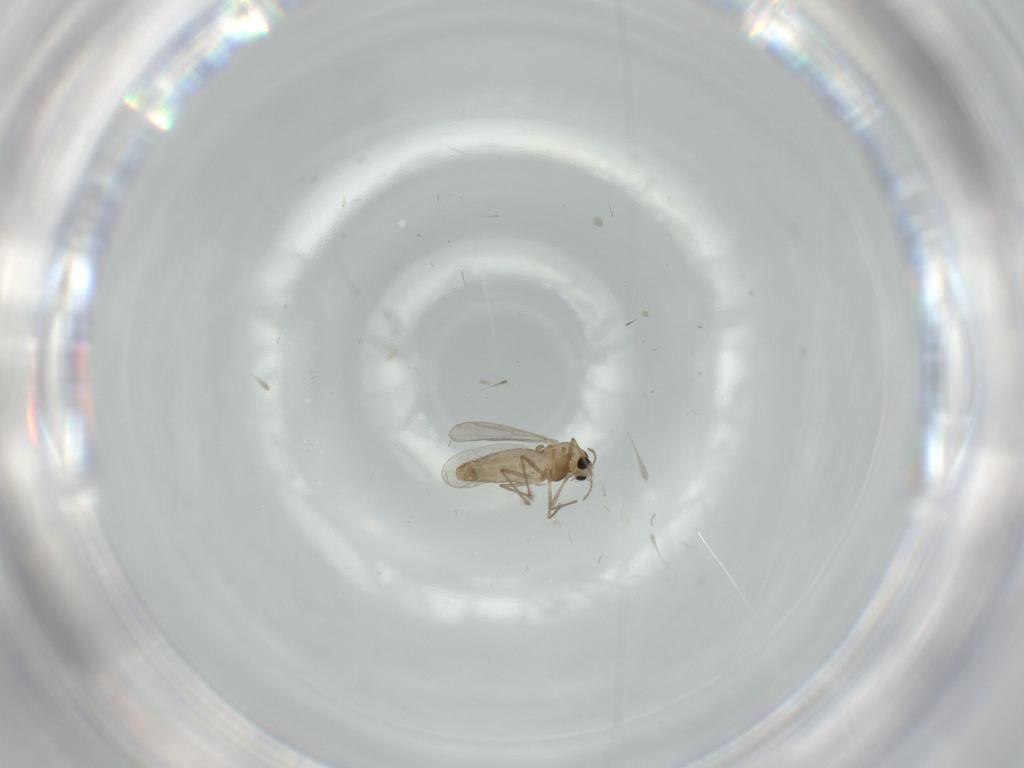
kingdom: Animalia
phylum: Arthropoda
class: Insecta
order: Diptera
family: Chironomidae
